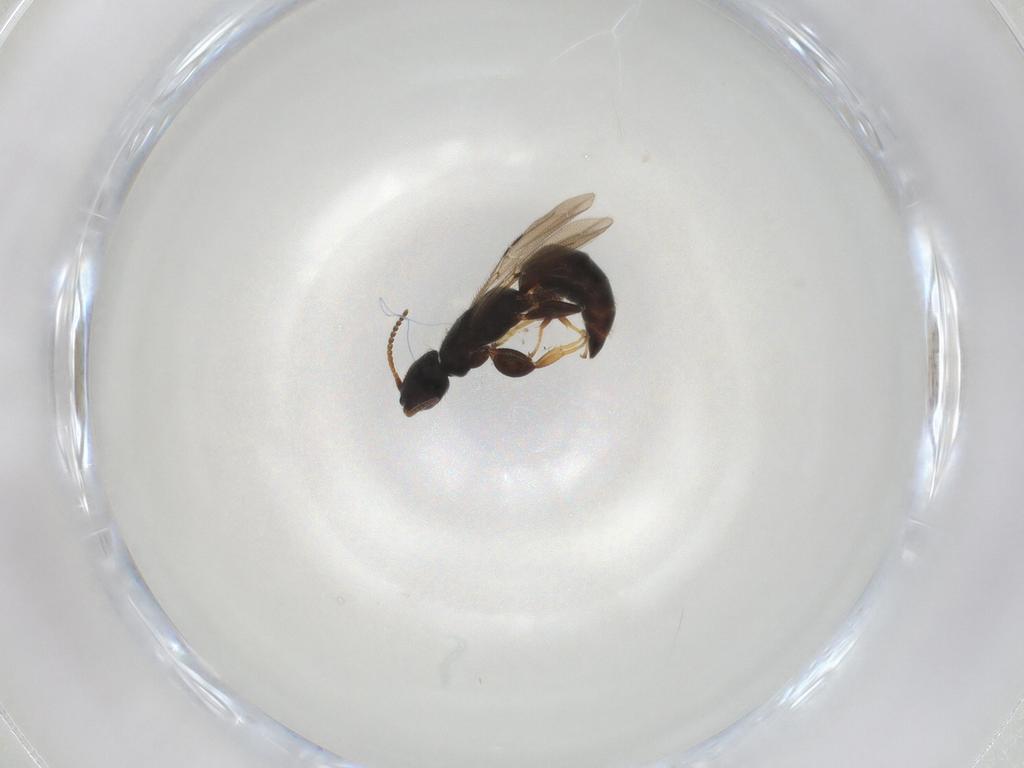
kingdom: Animalia
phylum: Arthropoda
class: Insecta
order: Hymenoptera
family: Bethylidae
